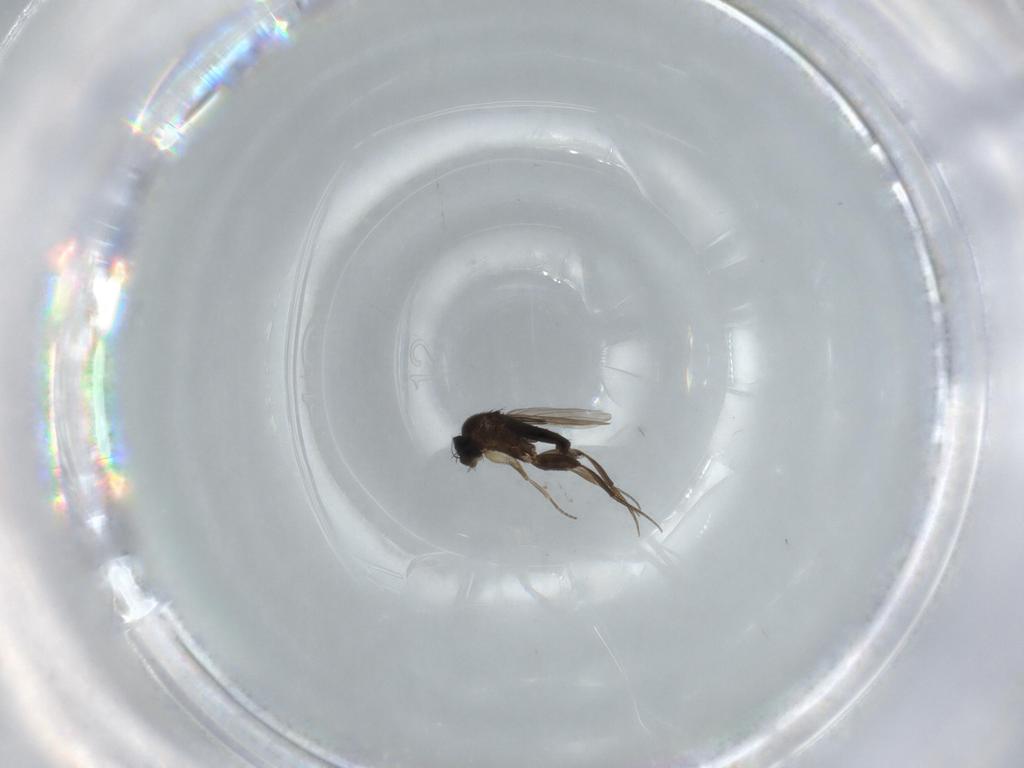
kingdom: Animalia
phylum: Arthropoda
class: Insecta
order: Diptera
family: Phoridae
